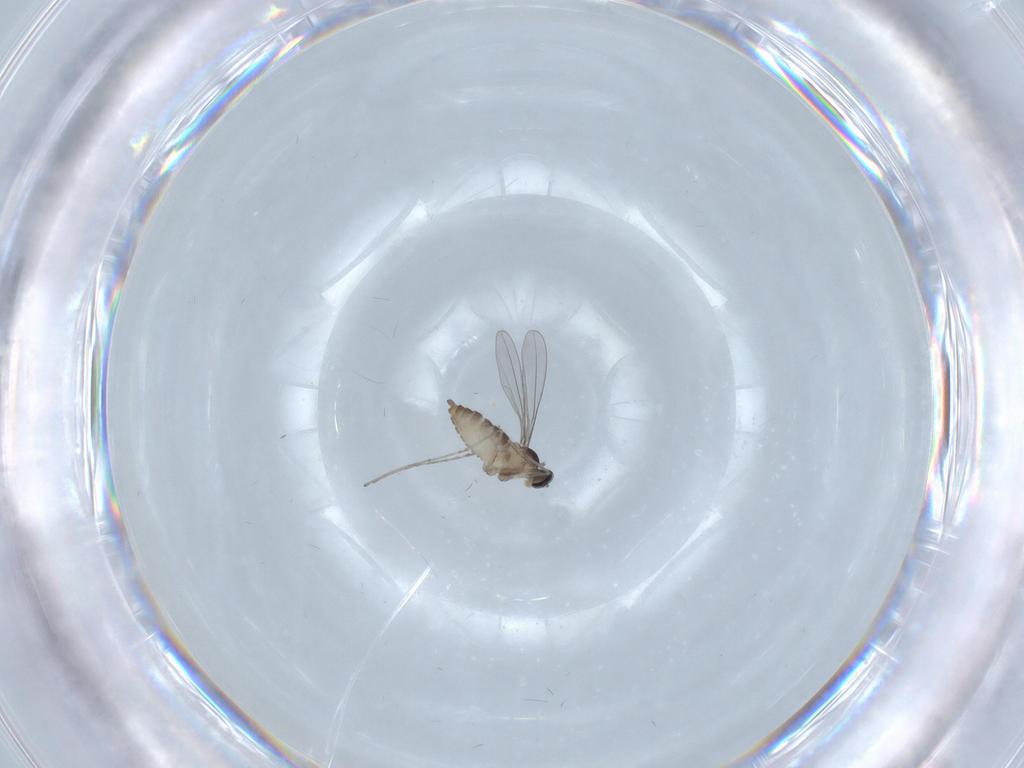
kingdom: Animalia
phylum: Arthropoda
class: Insecta
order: Diptera
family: Cecidomyiidae
